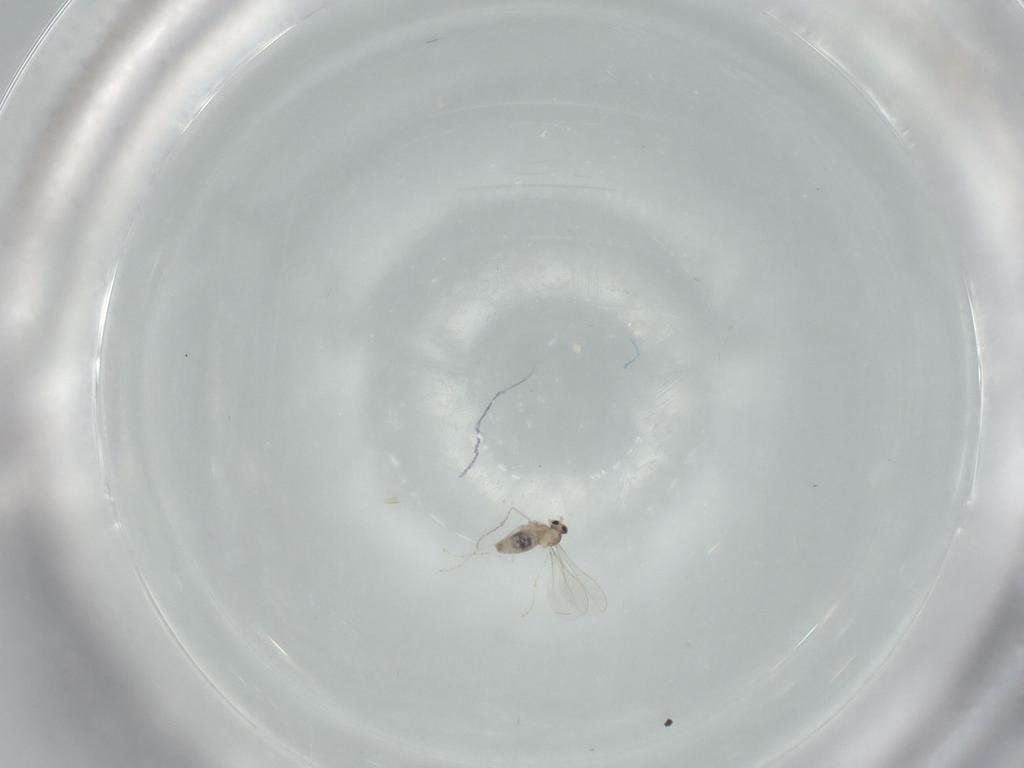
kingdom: Animalia
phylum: Arthropoda
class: Insecta
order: Diptera
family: Cecidomyiidae
